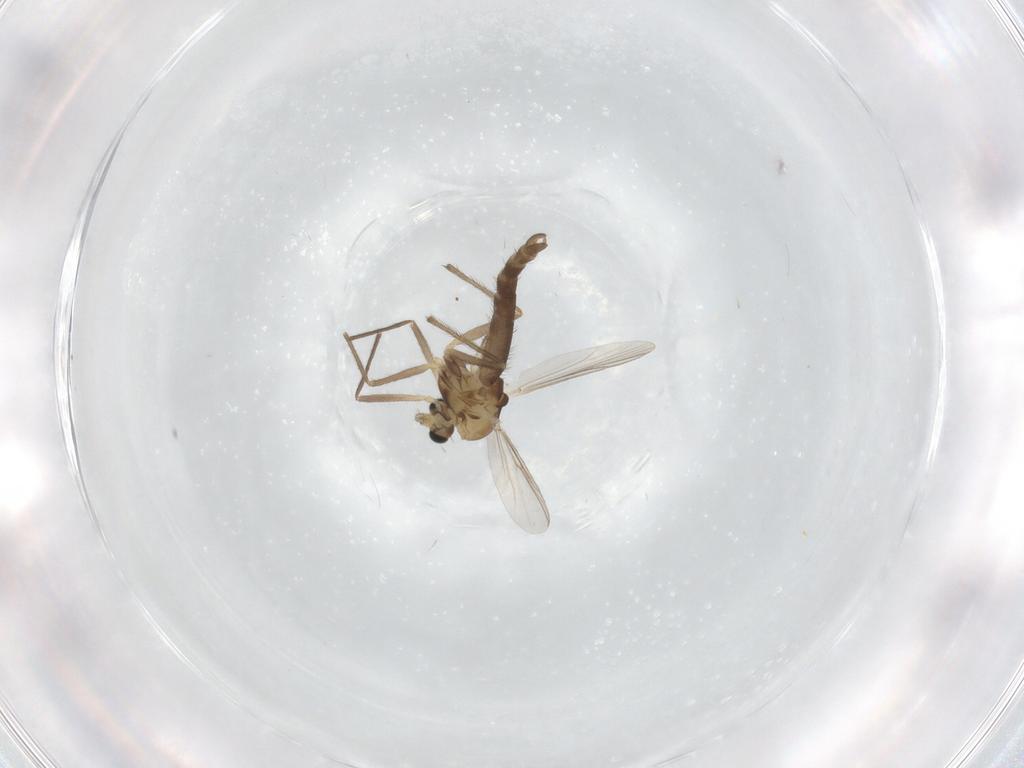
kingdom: Animalia
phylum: Arthropoda
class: Insecta
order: Diptera
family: Chironomidae
